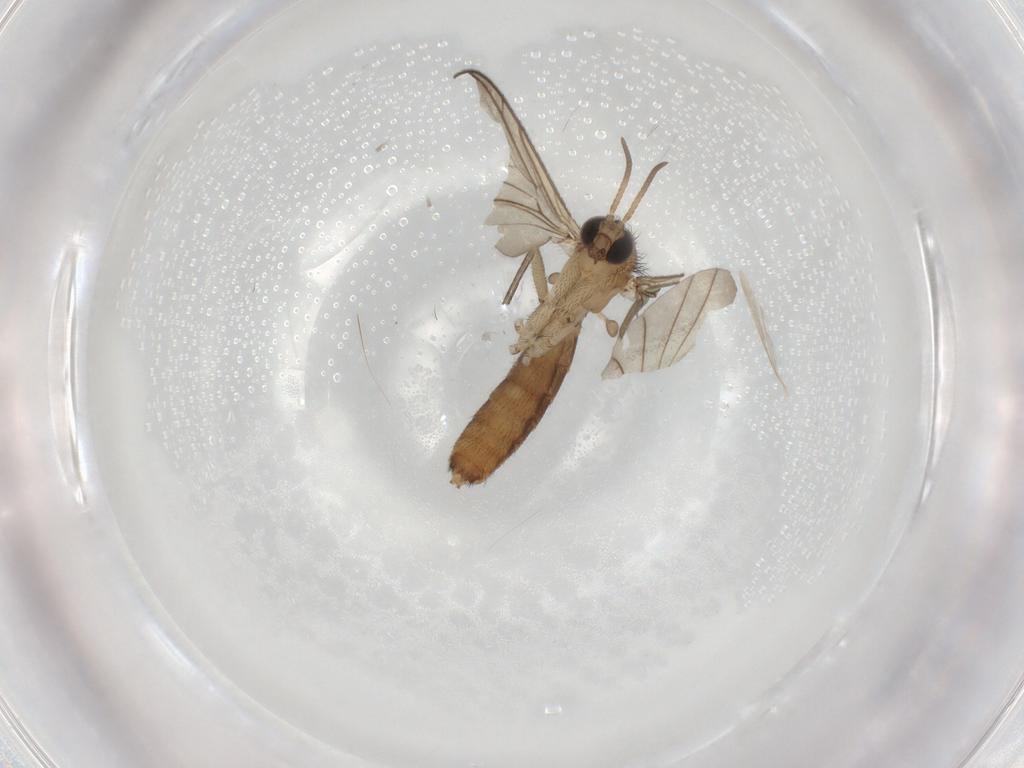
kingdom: Animalia
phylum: Arthropoda
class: Insecta
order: Diptera
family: Keroplatidae
